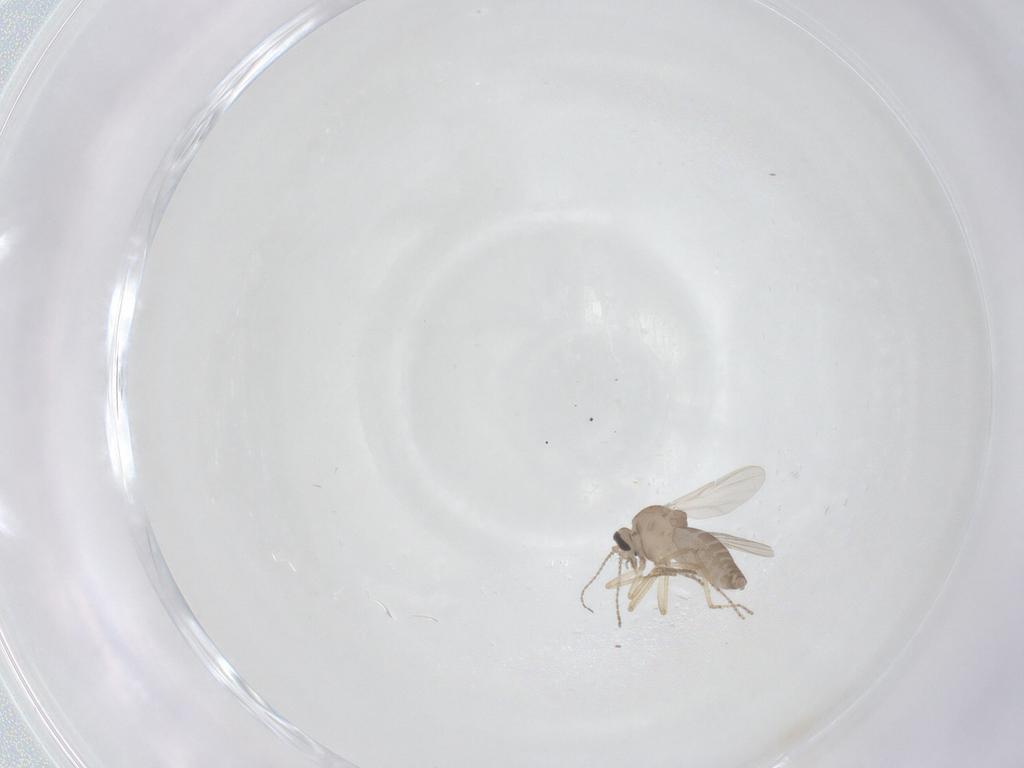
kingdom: Animalia
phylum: Arthropoda
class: Insecta
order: Diptera
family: Ceratopogonidae
